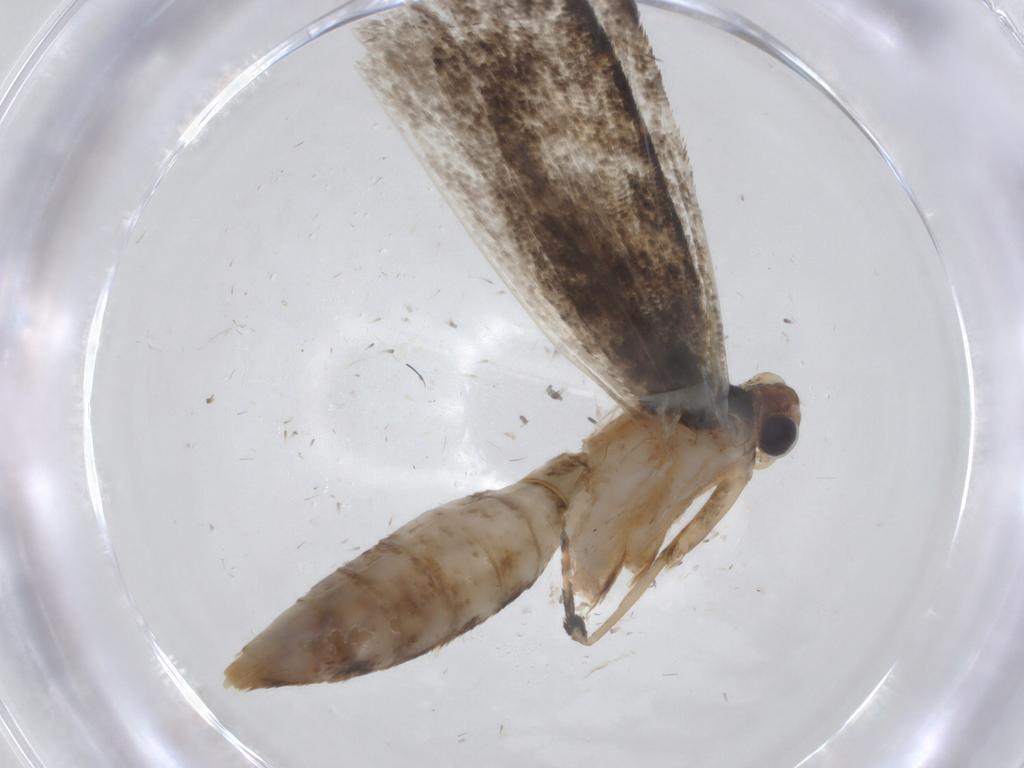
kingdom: Animalia
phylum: Arthropoda
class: Insecta
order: Lepidoptera
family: Tineidae
